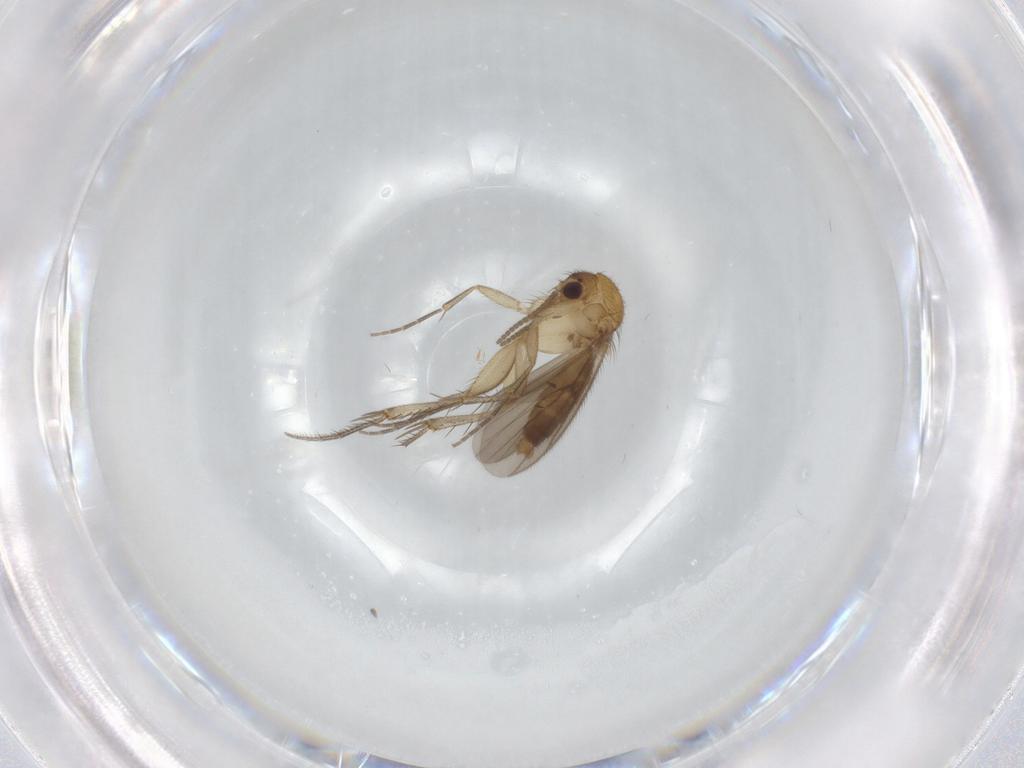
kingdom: Animalia
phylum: Arthropoda
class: Insecta
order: Diptera
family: Mycetophilidae
